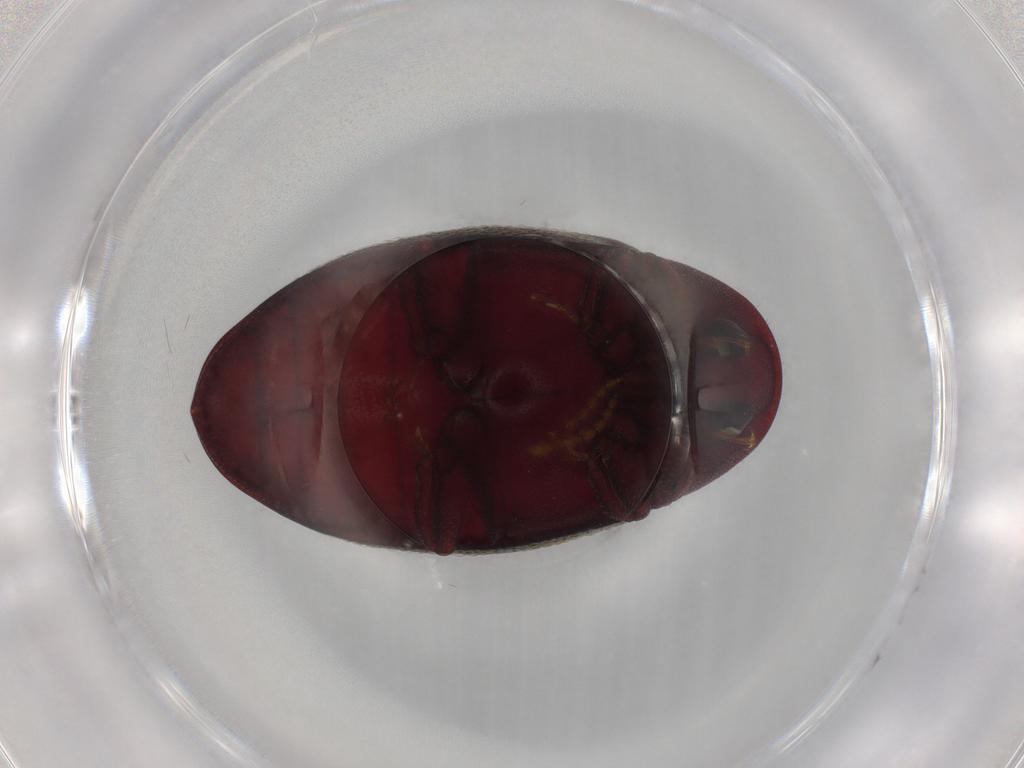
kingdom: Animalia
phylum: Arthropoda
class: Insecta
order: Coleoptera
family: Chelonariidae
